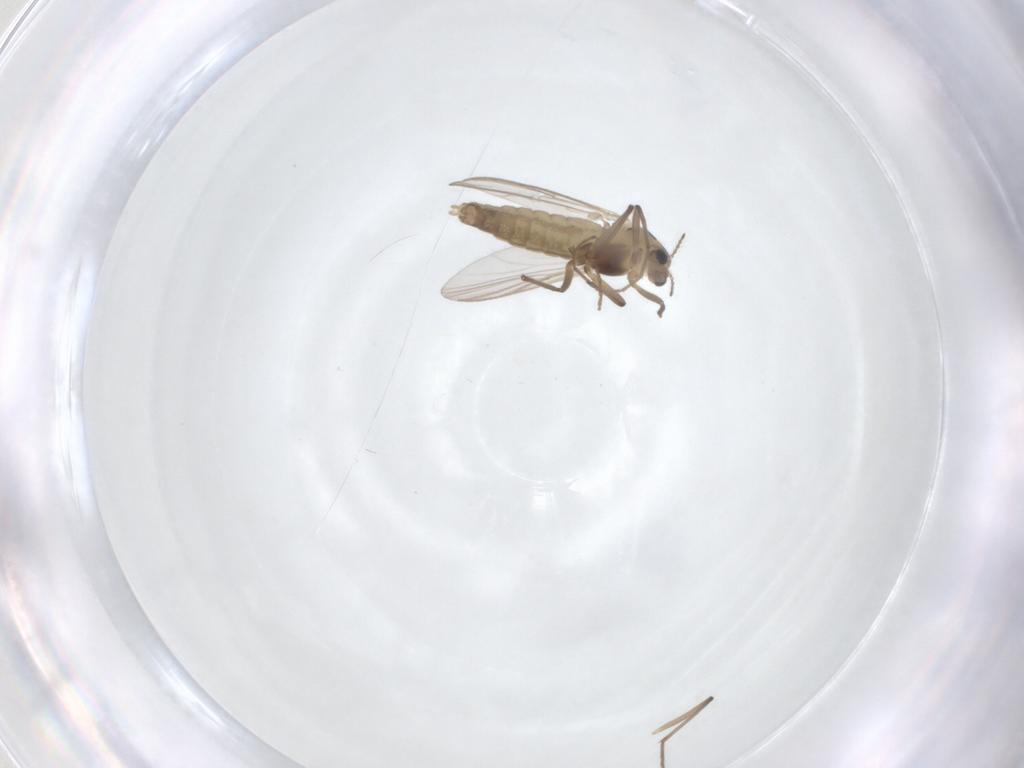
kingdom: Animalia
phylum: Arthropoda
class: Insecta
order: Diptera
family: Chironomidae
